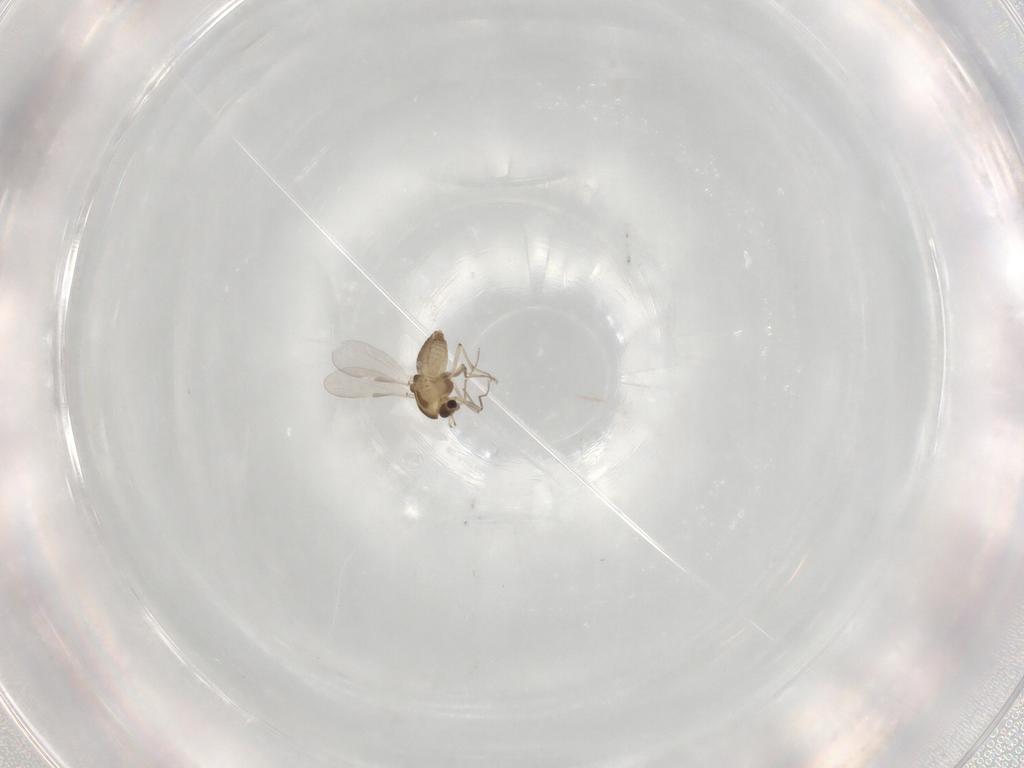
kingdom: Animalia
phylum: Arthropoda
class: Insecta
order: Diptera
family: Chironomidae
